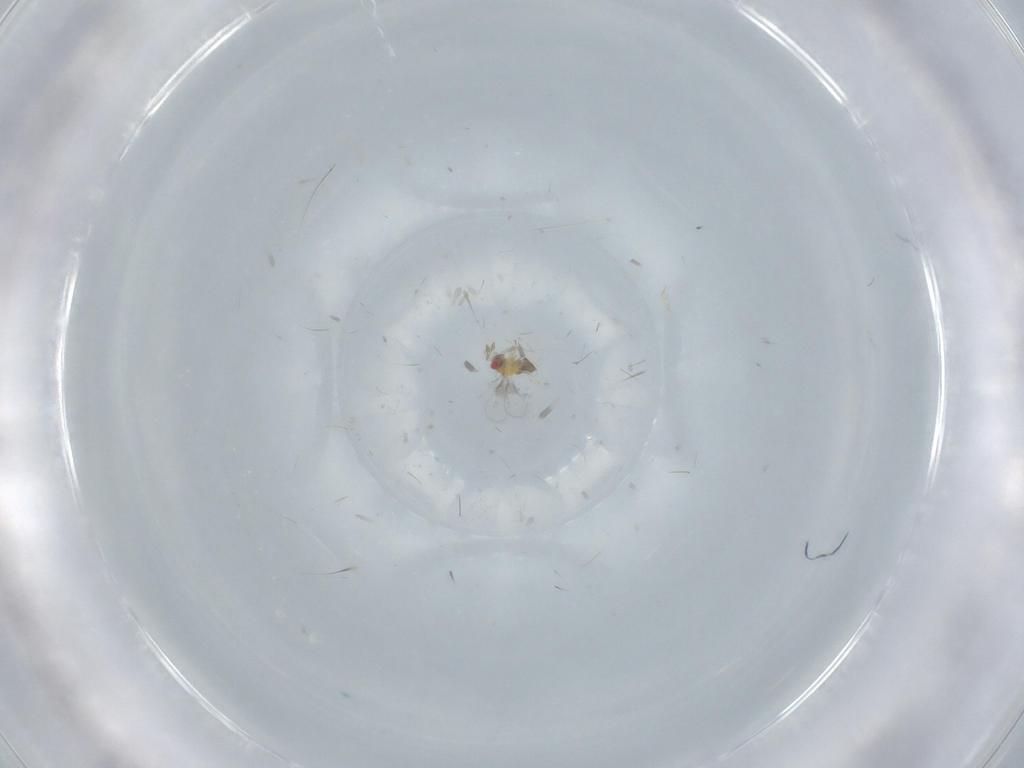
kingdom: Animalia
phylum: Arthropoda
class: Insecta
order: Hymenoptera
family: Trichogrammatidae
